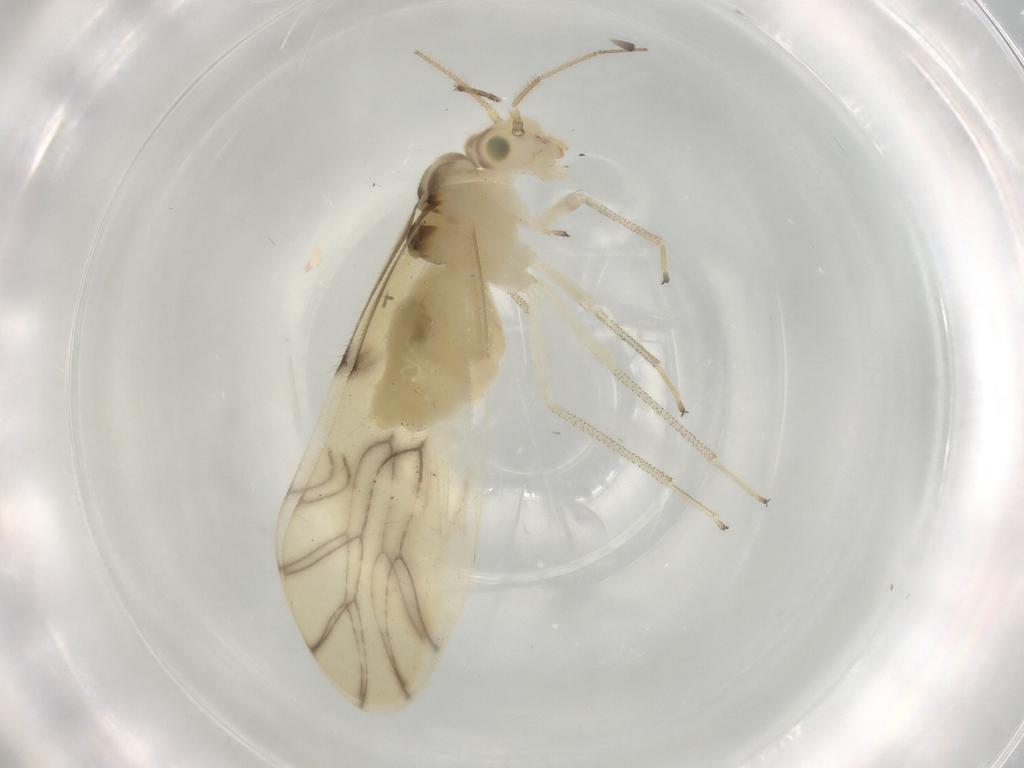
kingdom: Animalia
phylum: Arthropoda
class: Insecta
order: Psocodea
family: Caeciliusidae
